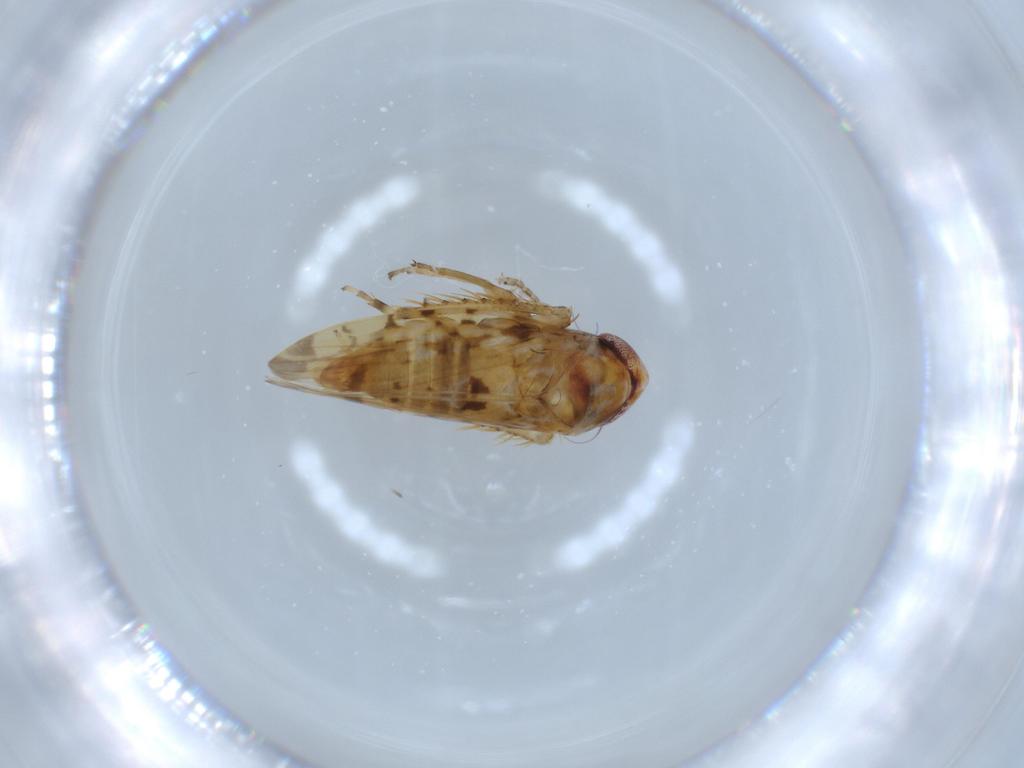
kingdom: Animalia
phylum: Arthropoda
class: Insecta
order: Hemiptera
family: Cicadellidae
